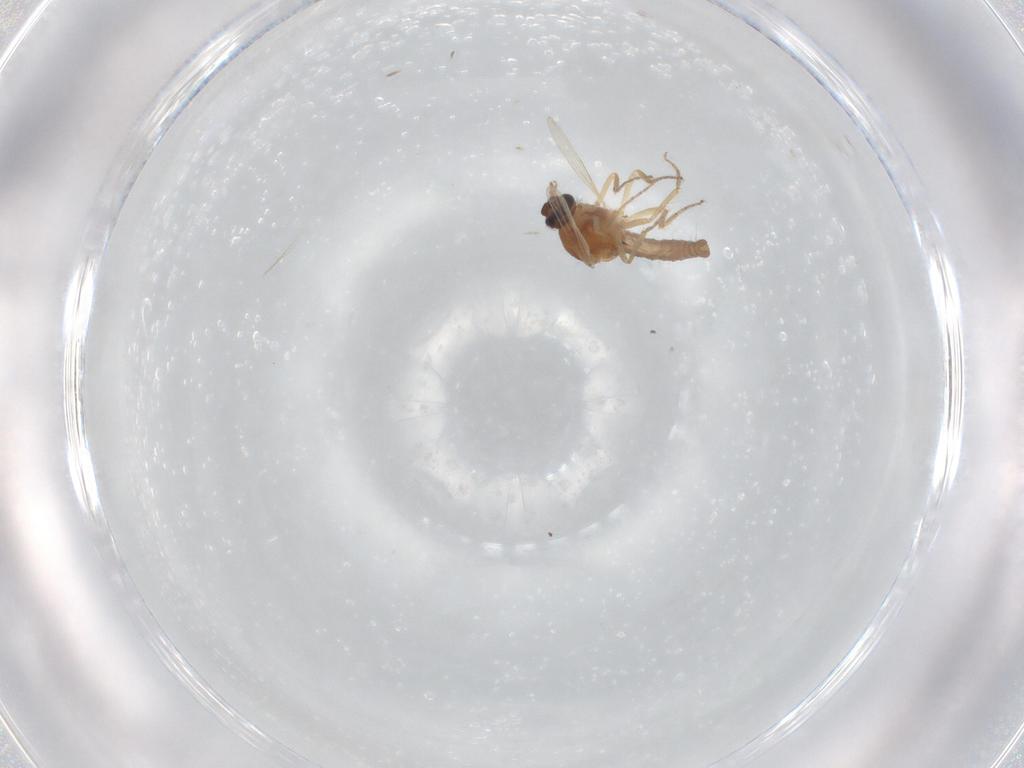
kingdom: Animalia
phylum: Arthropoda
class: Insecta
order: Diptera
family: Ceratopogonidae
